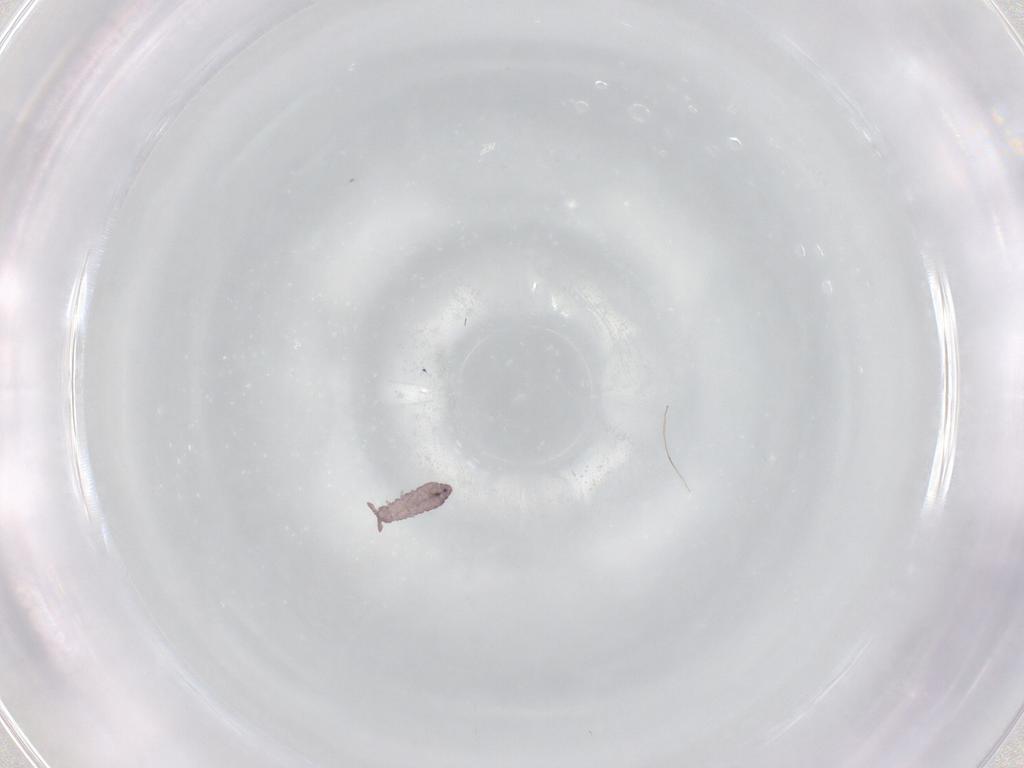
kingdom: Animalia
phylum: Arthropoda
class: Collembola
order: Poduromorpha
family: Hypogastruridae
